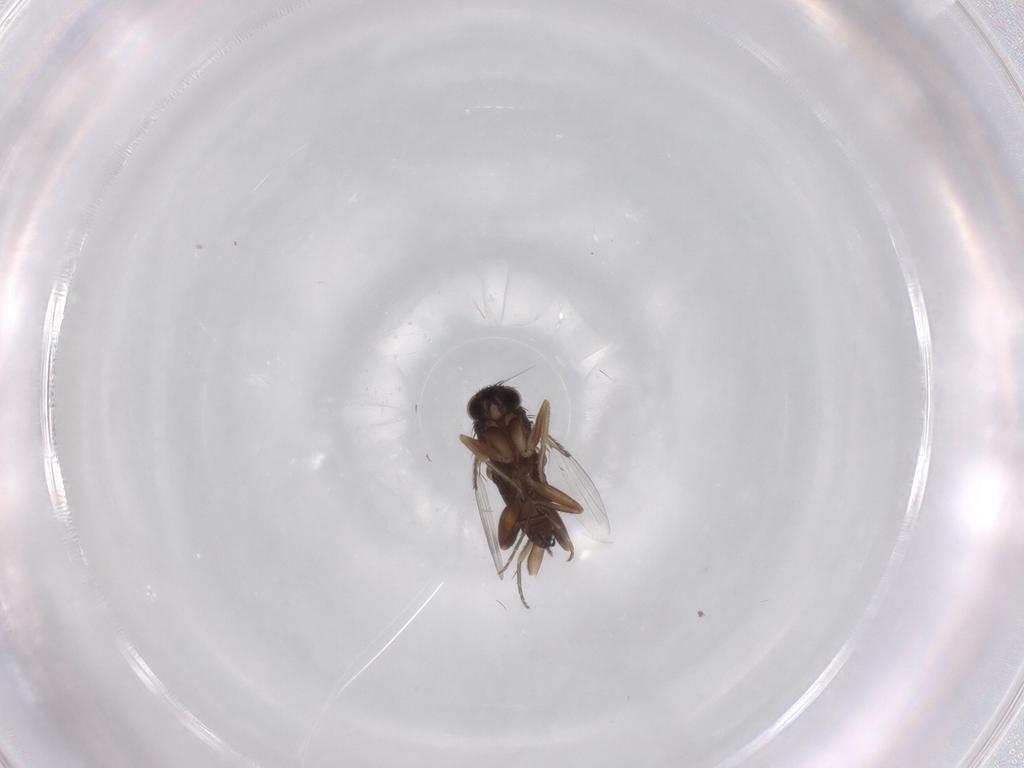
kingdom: Animalia
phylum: Arthropoda
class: Insecta
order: Diptera
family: Phoridae
